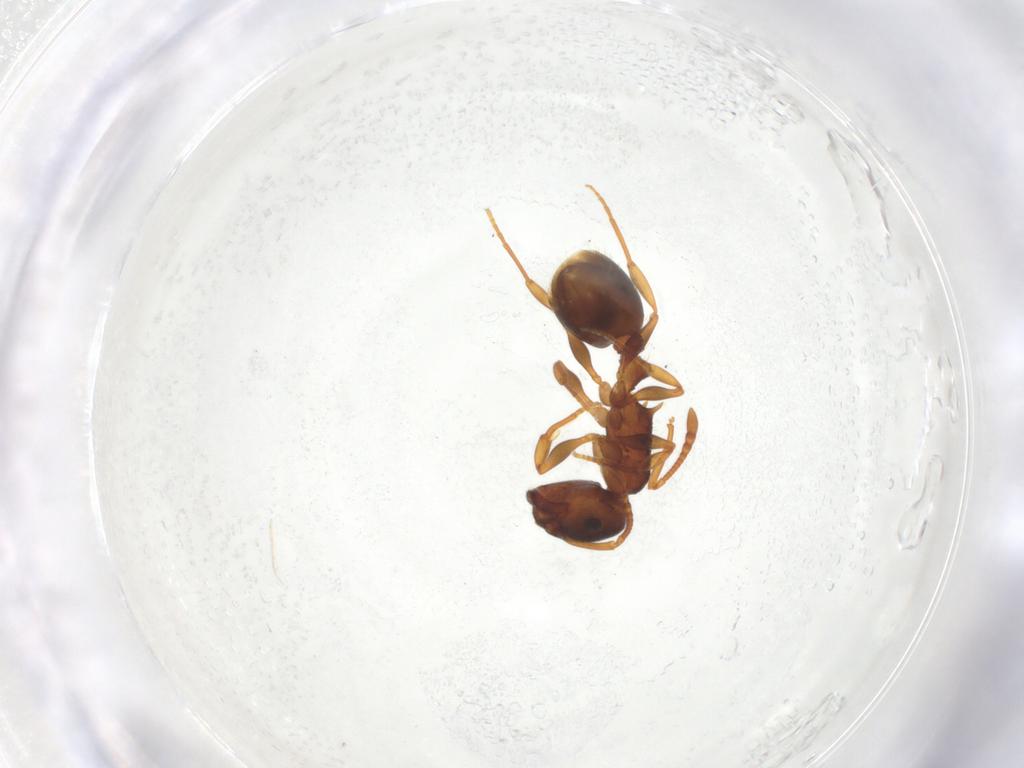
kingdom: Animalia
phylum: Arthropoda
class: Insecta
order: Hymenoptera
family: Formicidae
